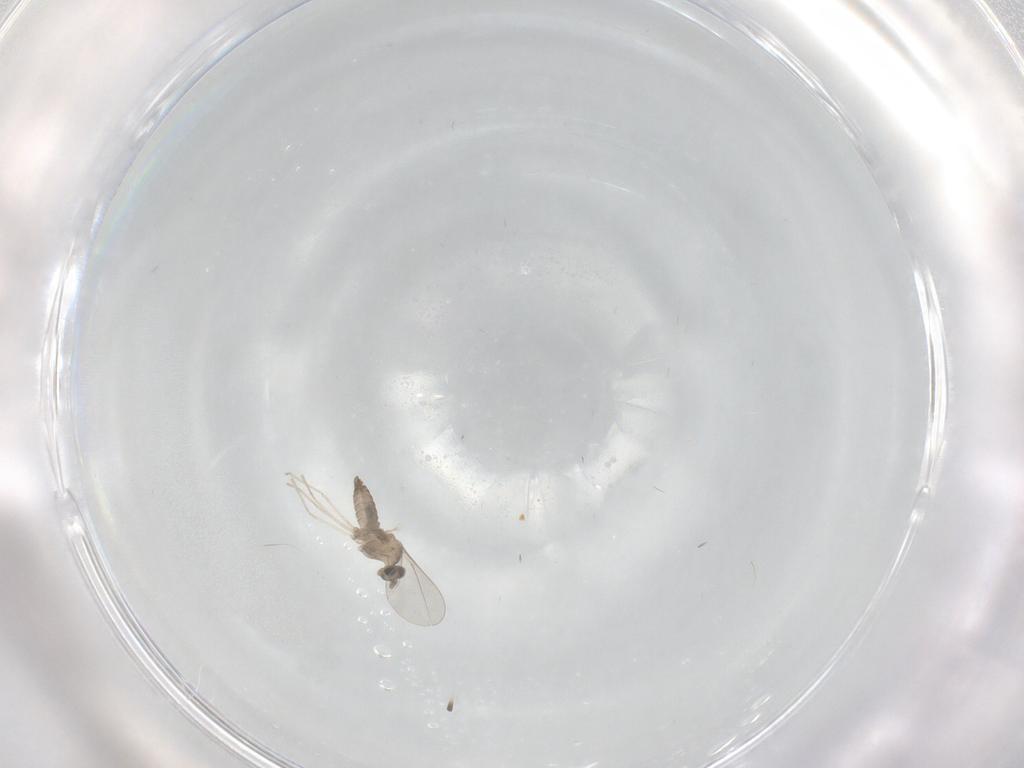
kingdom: Animalia
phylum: Arthropoda
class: Insecta
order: Diptera
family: Cecidomyiidae
